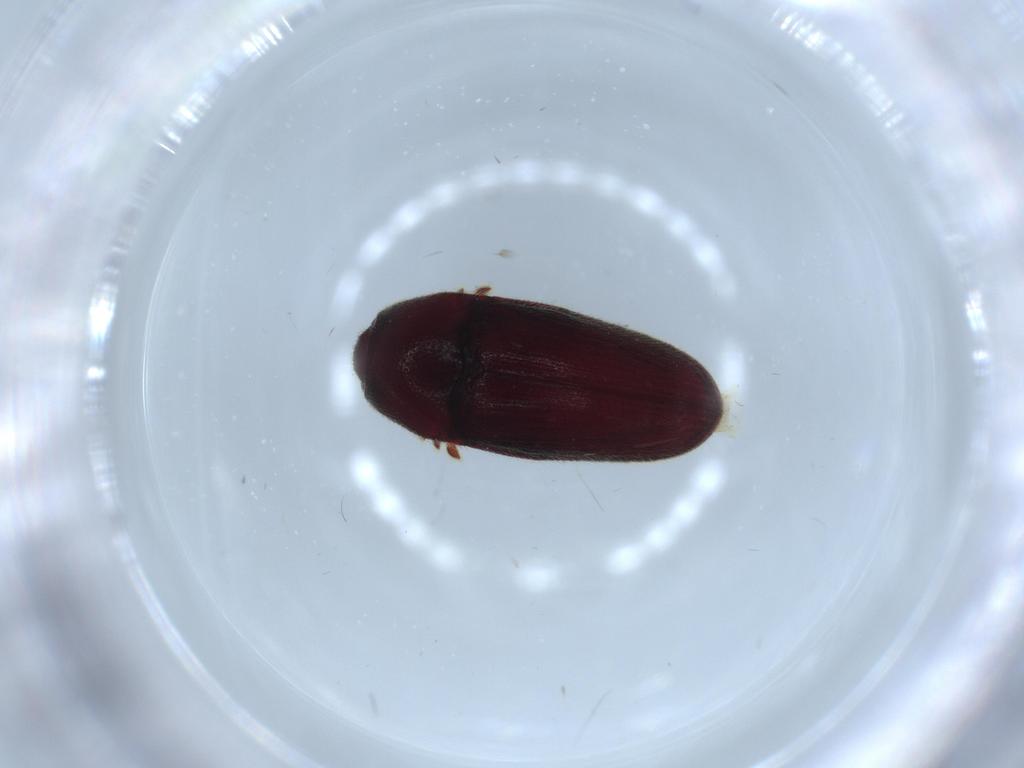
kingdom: Animalia
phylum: Arthropoda
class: Insecta
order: Coleoptera
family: Throscidae
